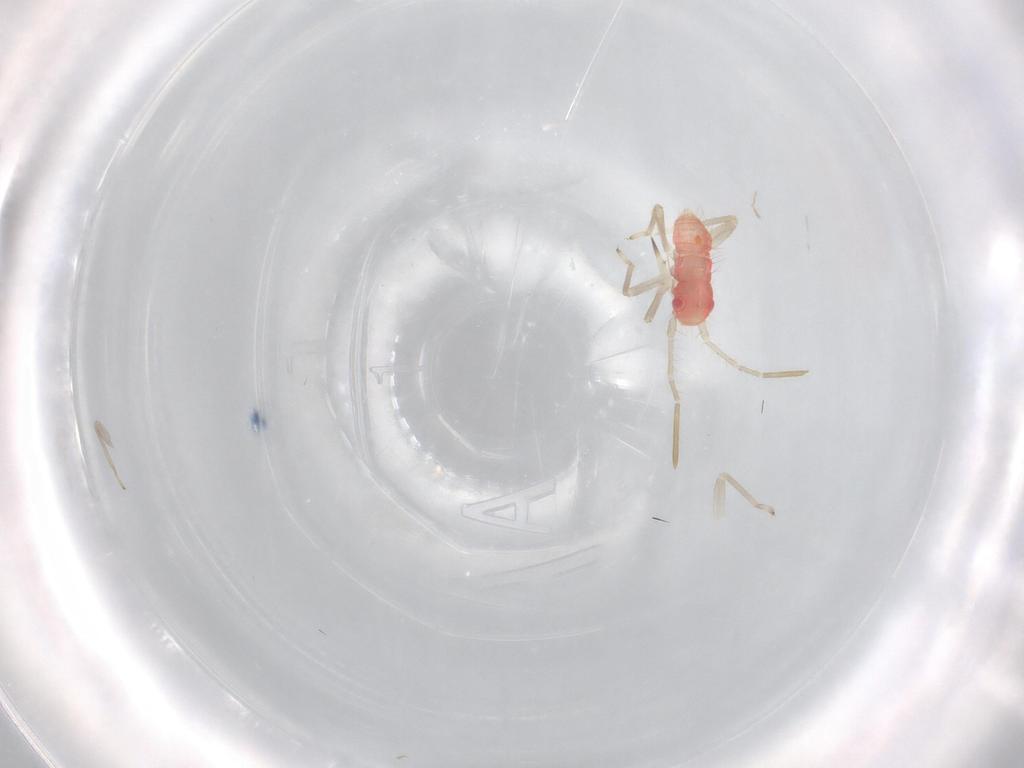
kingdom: Animalia
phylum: Arthropoda
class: Insecta
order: Hemiptera
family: Miridae
